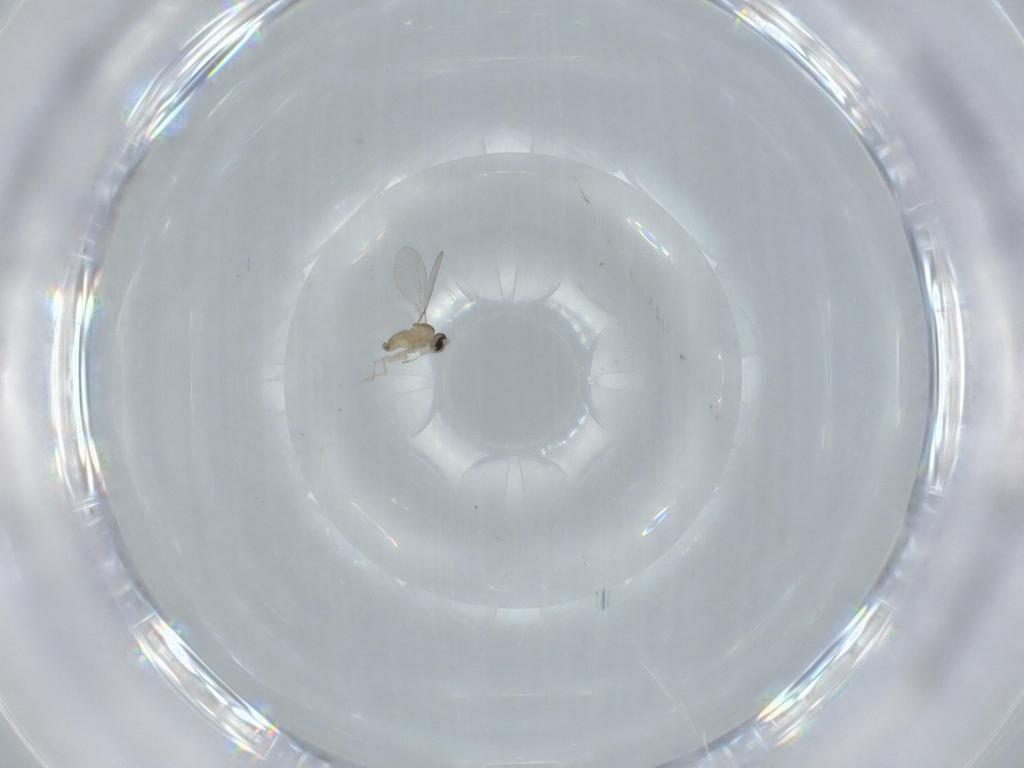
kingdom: Animalia
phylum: Arthropoda
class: Insecta
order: Diptera
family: Cecidomyiidae
